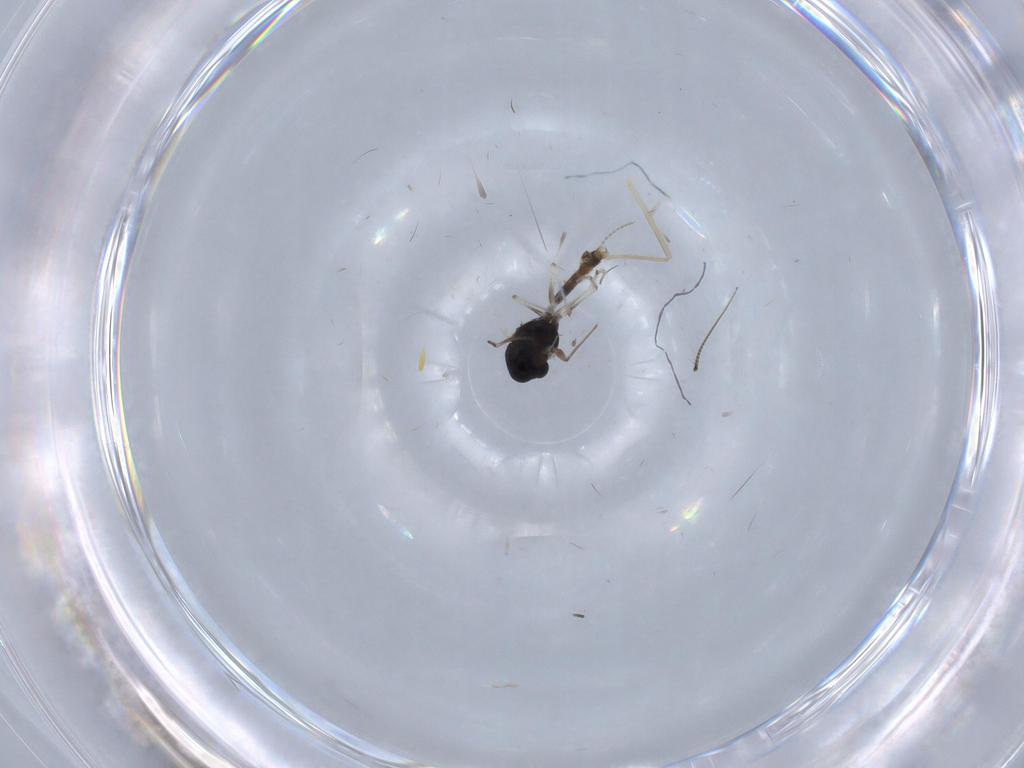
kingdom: Animalia
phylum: Arthropoda
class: Insecta
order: Diptera
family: Chironomidae
